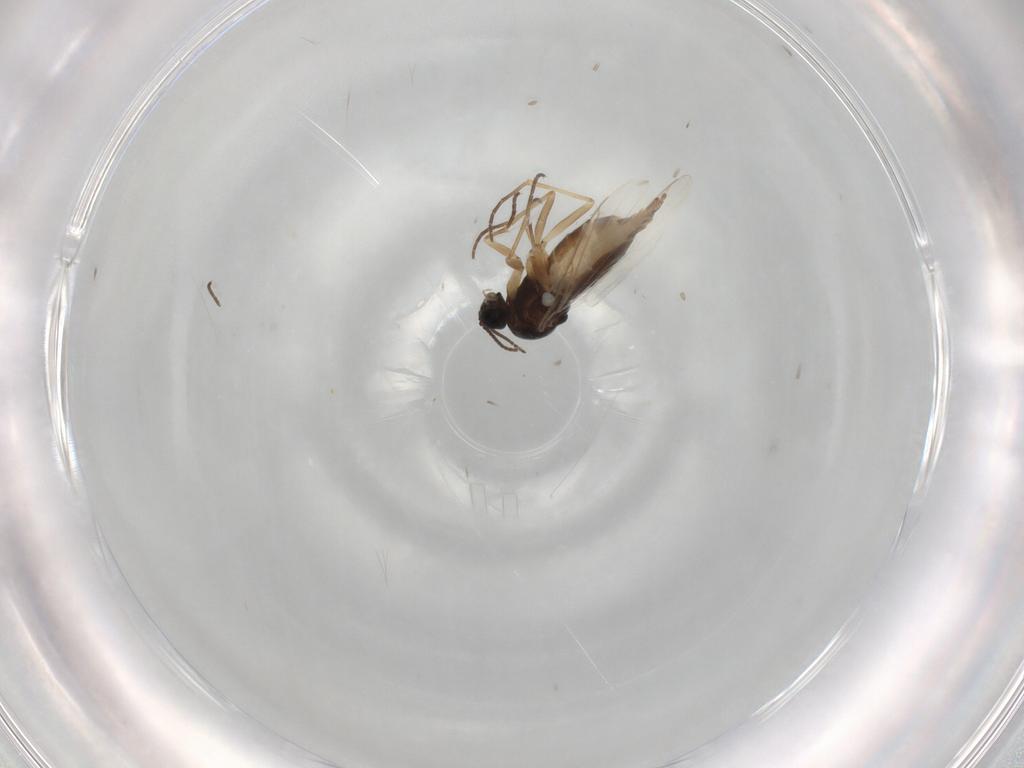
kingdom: Animalia
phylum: Arthropoda
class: Insecta
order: Diptera
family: Sciaridae
